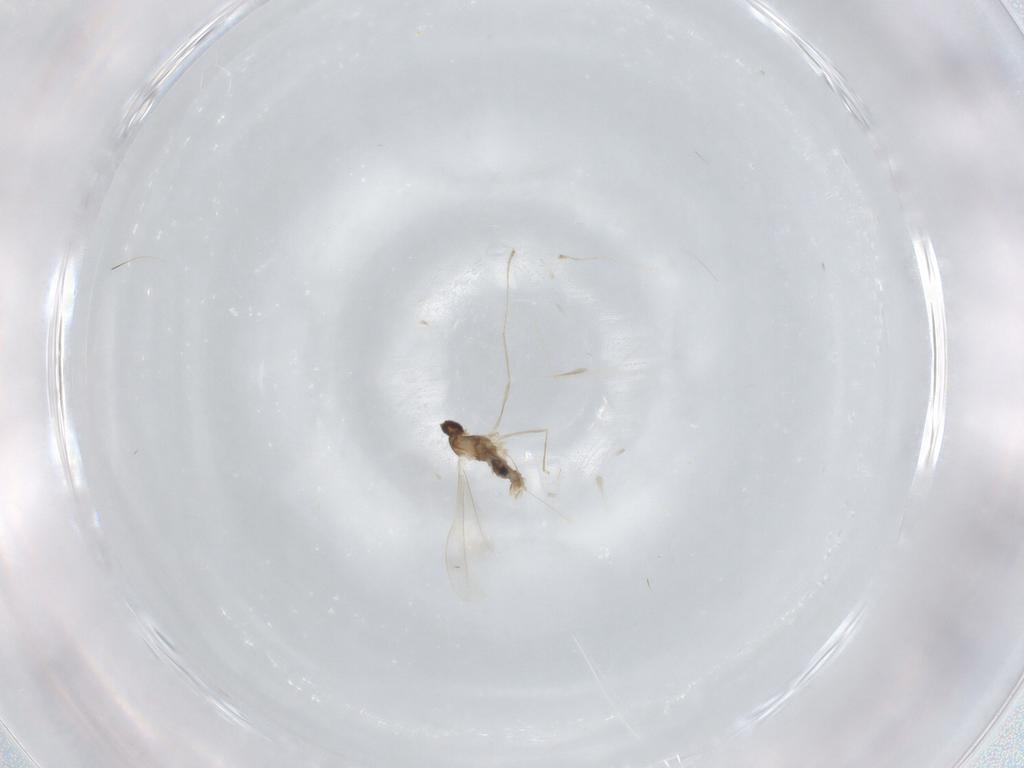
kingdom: Animalia
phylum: Arthropoda
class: Insecta
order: Diptera
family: Cecidomyiidae
